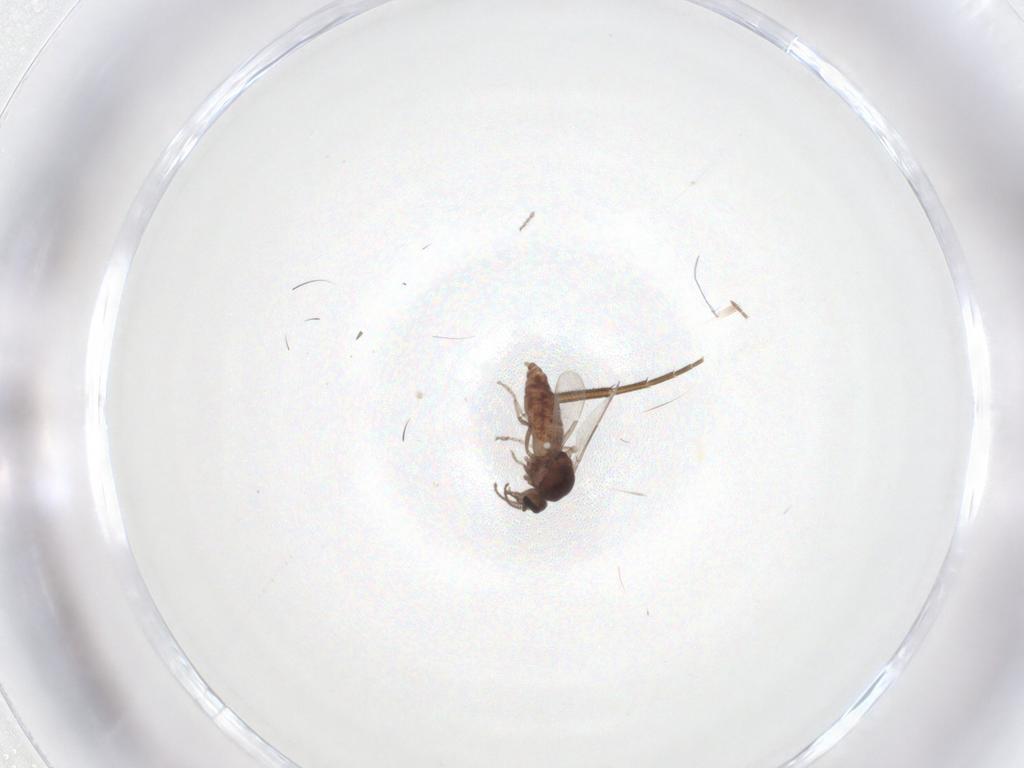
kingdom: Animalia
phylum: Arthropoda
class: Insecta
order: Diptera
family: Ceratopogonidae
